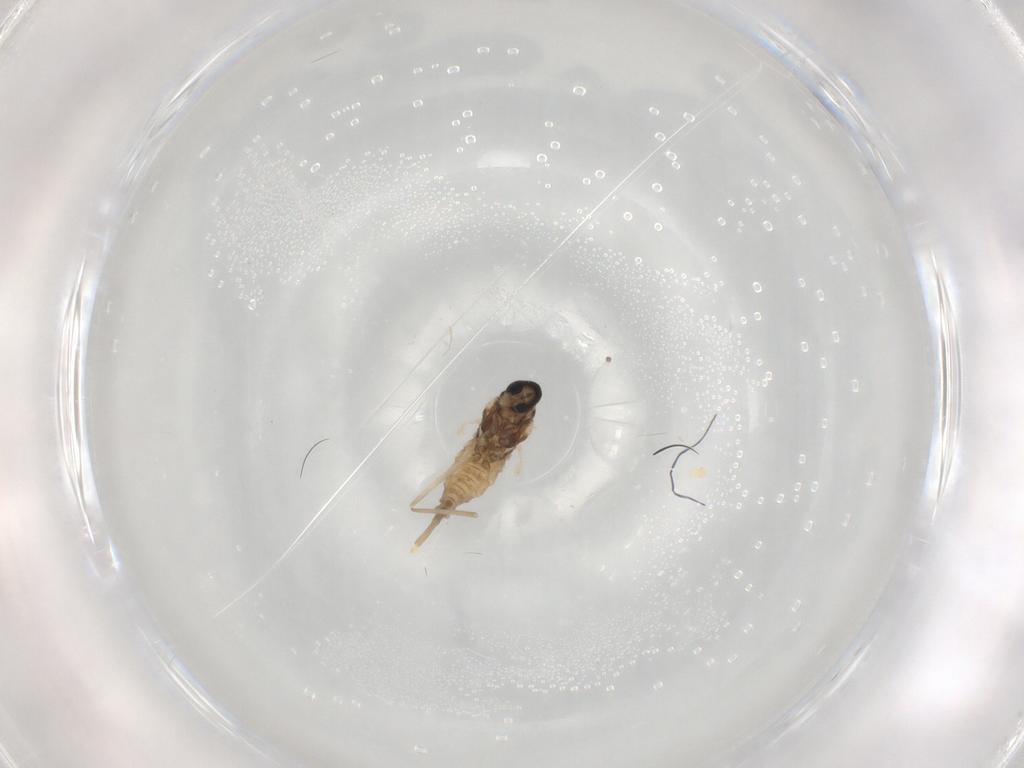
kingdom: Animalia
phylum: Arthropoda
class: Insecta
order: Diptera
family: Cecidomyiidae
